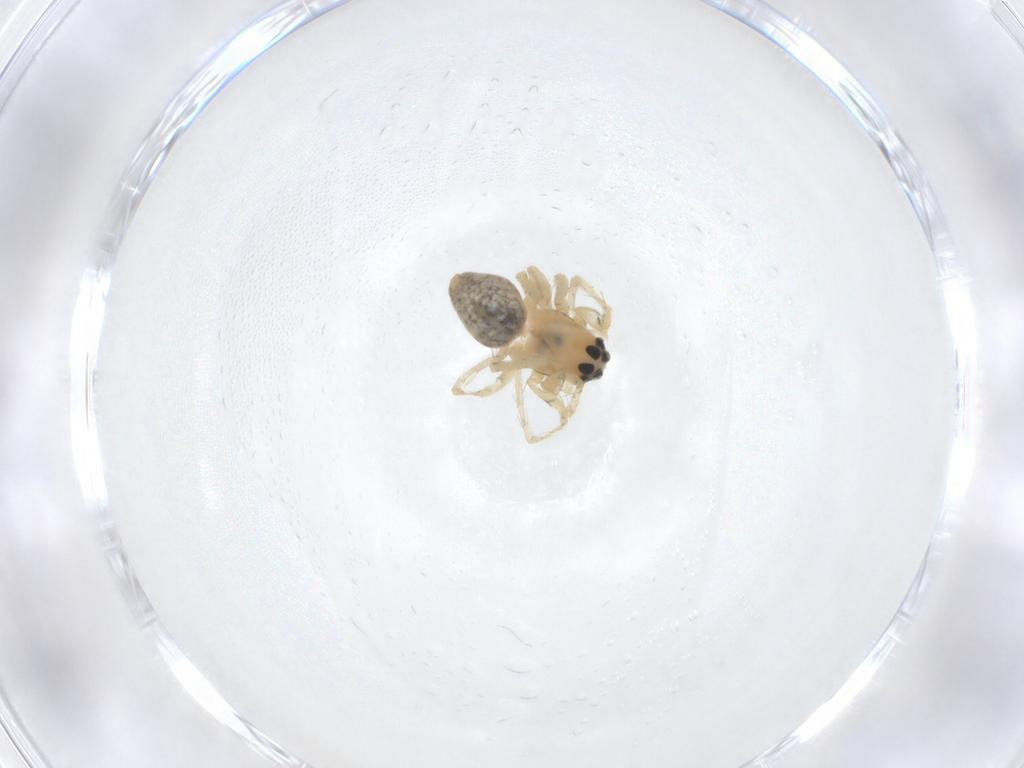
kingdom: Animalia
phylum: Arthropoda
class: Arachnida
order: Araneae
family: Oxyopidae
